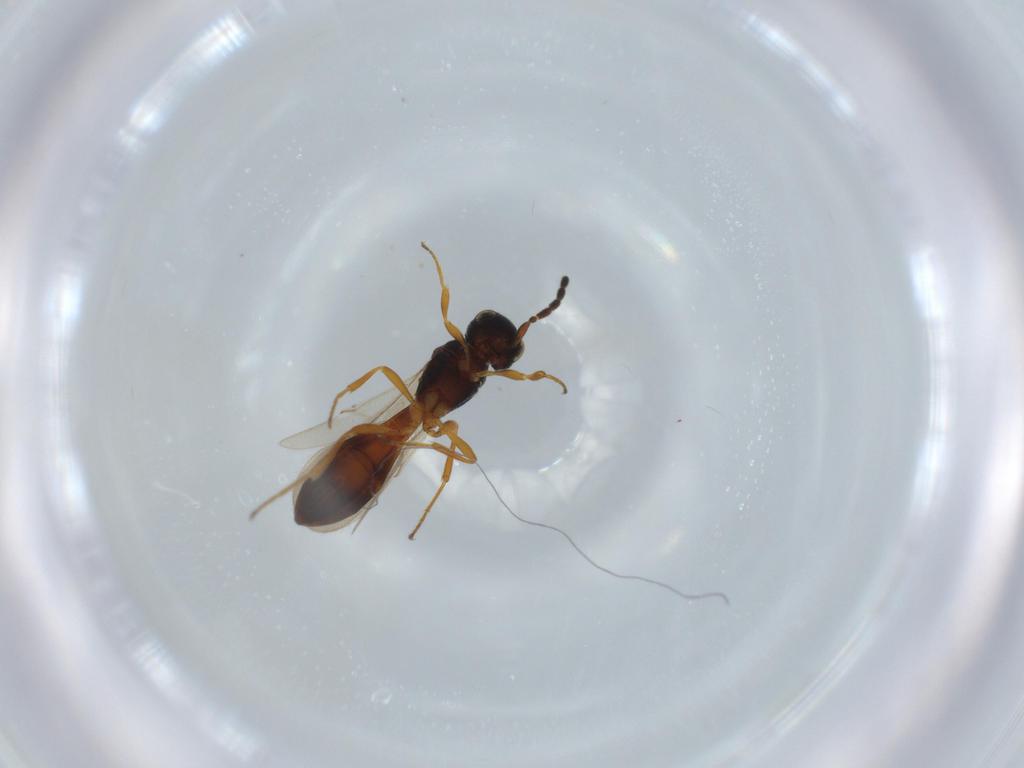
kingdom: Animalia
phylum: Arthropoda
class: Insecta
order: Hymenoptera
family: Scelionidae
